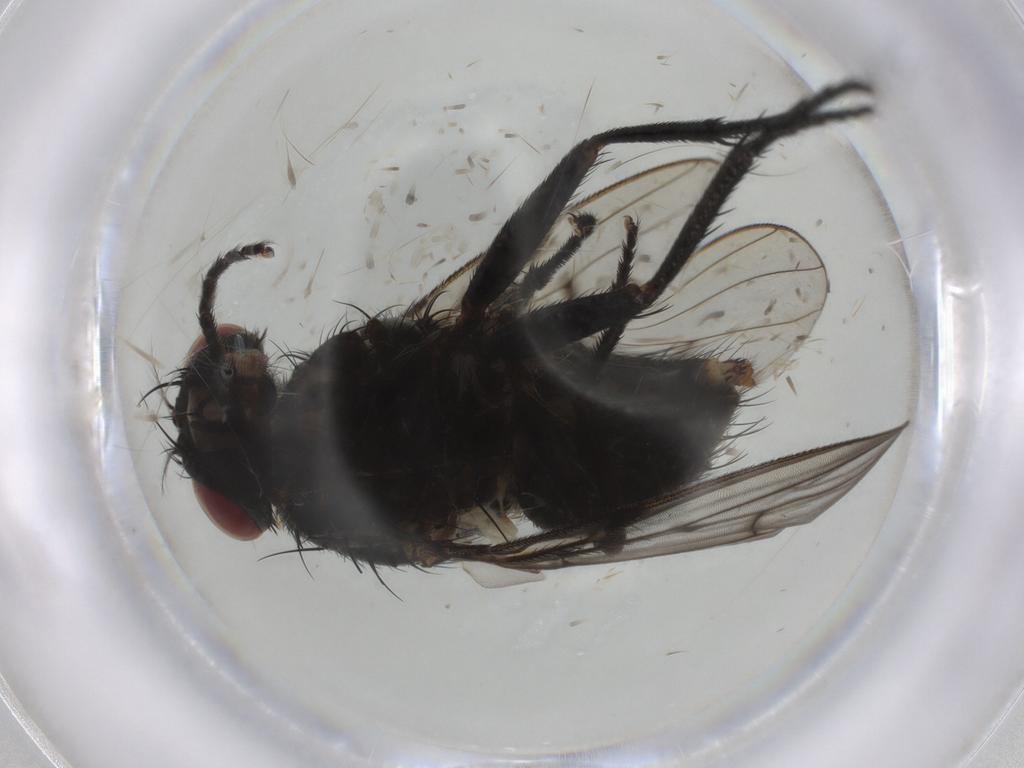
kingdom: Animalia
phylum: Arthropoda
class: Insecta
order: Diptera
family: Muscidae
